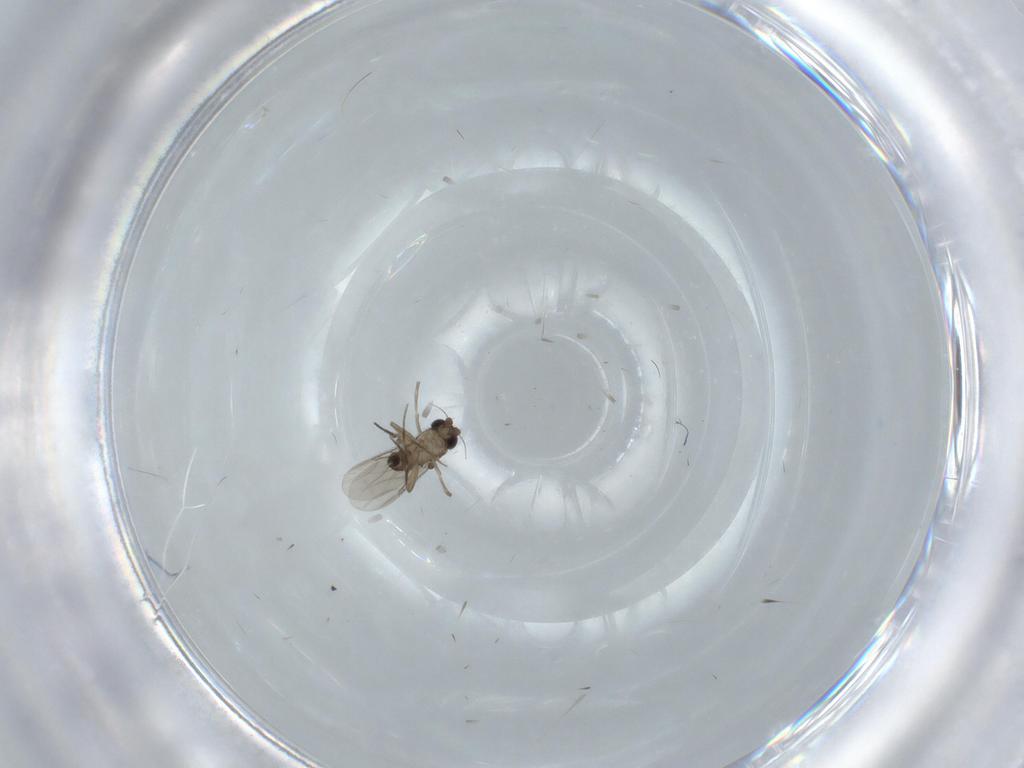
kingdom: Animalia
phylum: Arthropoda
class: Insecta
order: Diptera
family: Sciaridae
